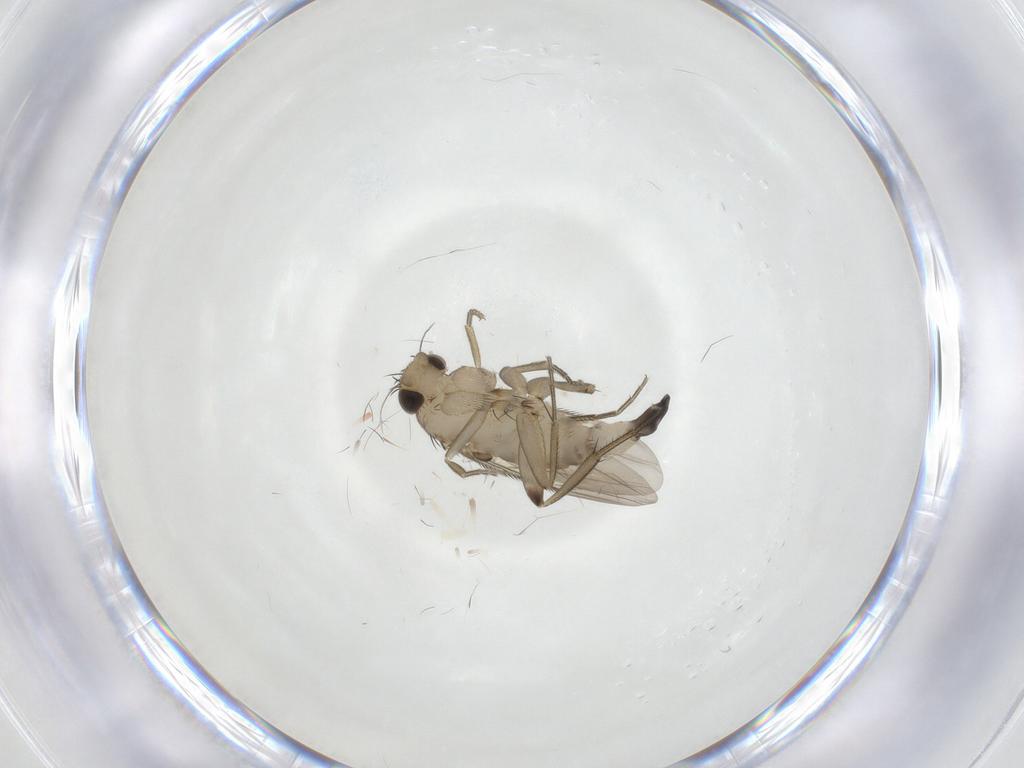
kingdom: Animalia
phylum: Arthropoda
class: Insecta
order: Diptera
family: Phoridae
